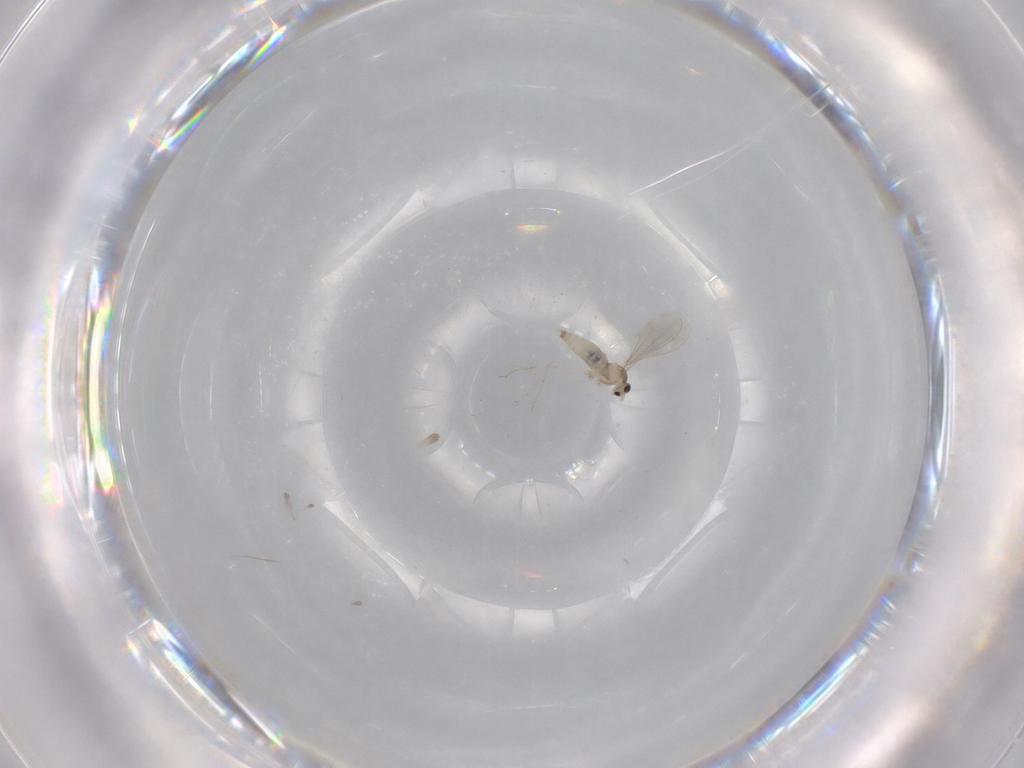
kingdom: Animalia
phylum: Arthropoda
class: Insecta
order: Diptera
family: Cecidomyiidae
